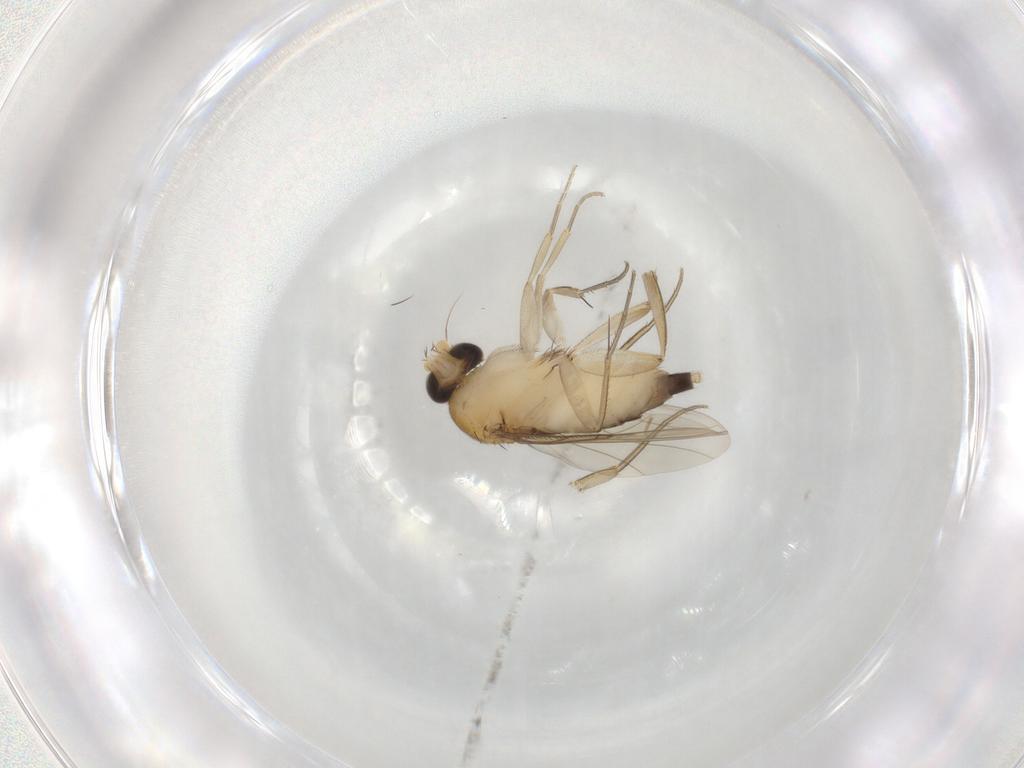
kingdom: Animalia
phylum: Arthropoda
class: Insecta
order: Diptera
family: Phoridae
